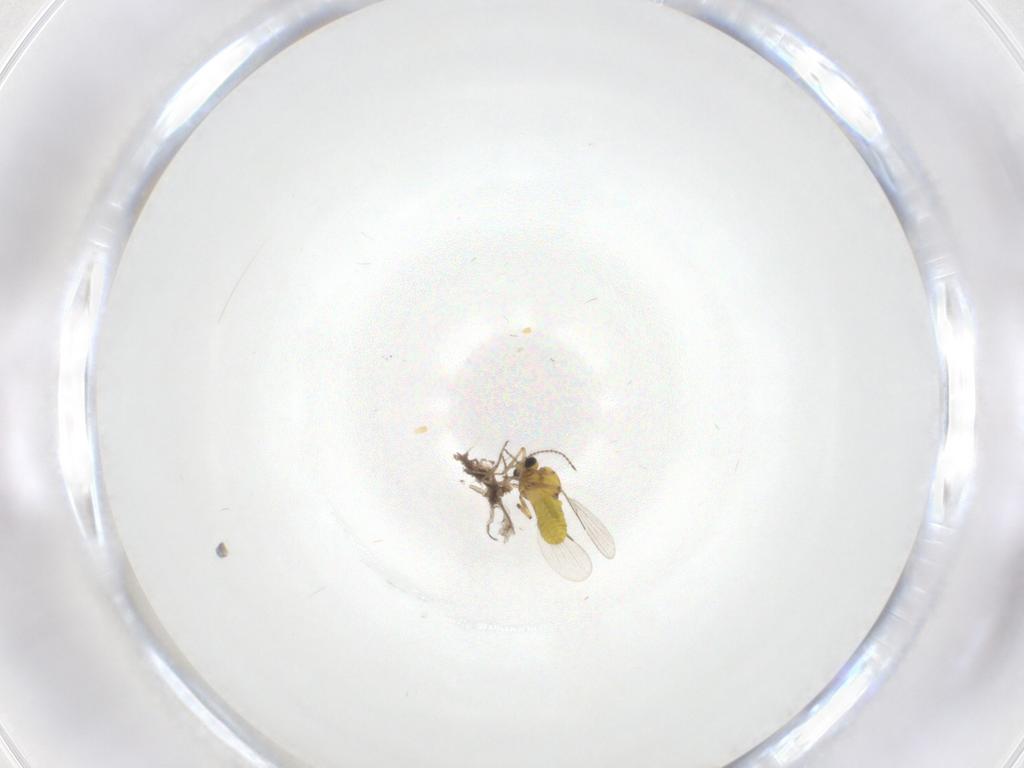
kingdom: Animalia
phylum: Arthropoda
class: Insecta
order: Diptera
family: Ceratopogonidae
